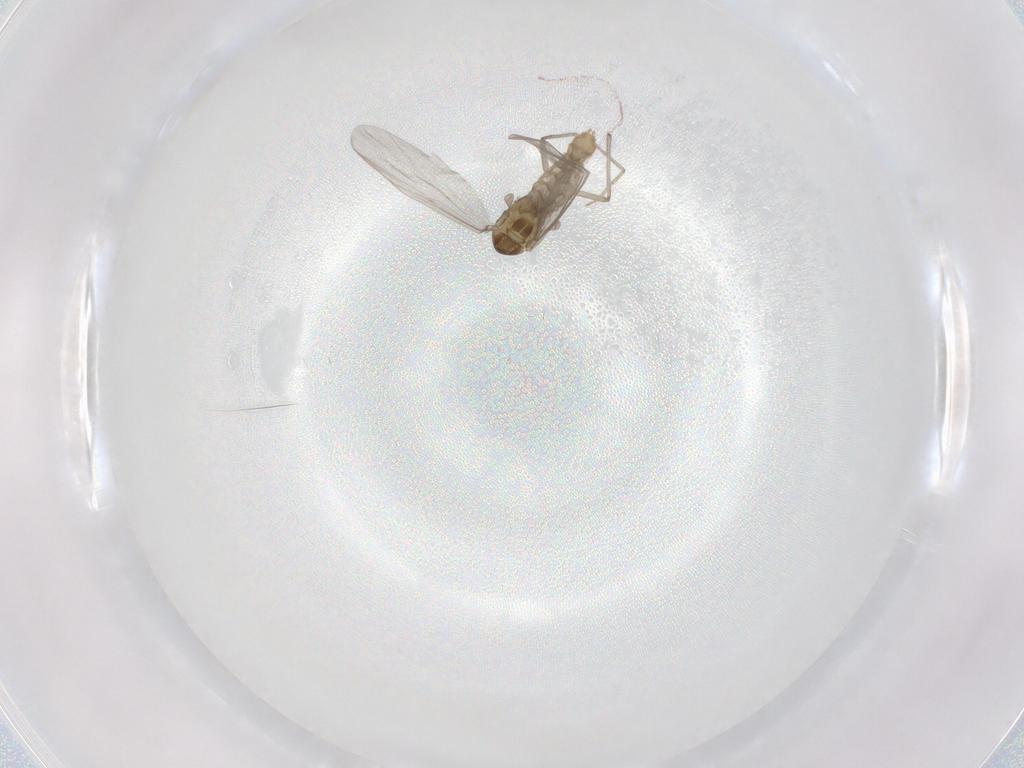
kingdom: Animalia
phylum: Arthropoda
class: Insecta
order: Diptera
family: Chironomidae
